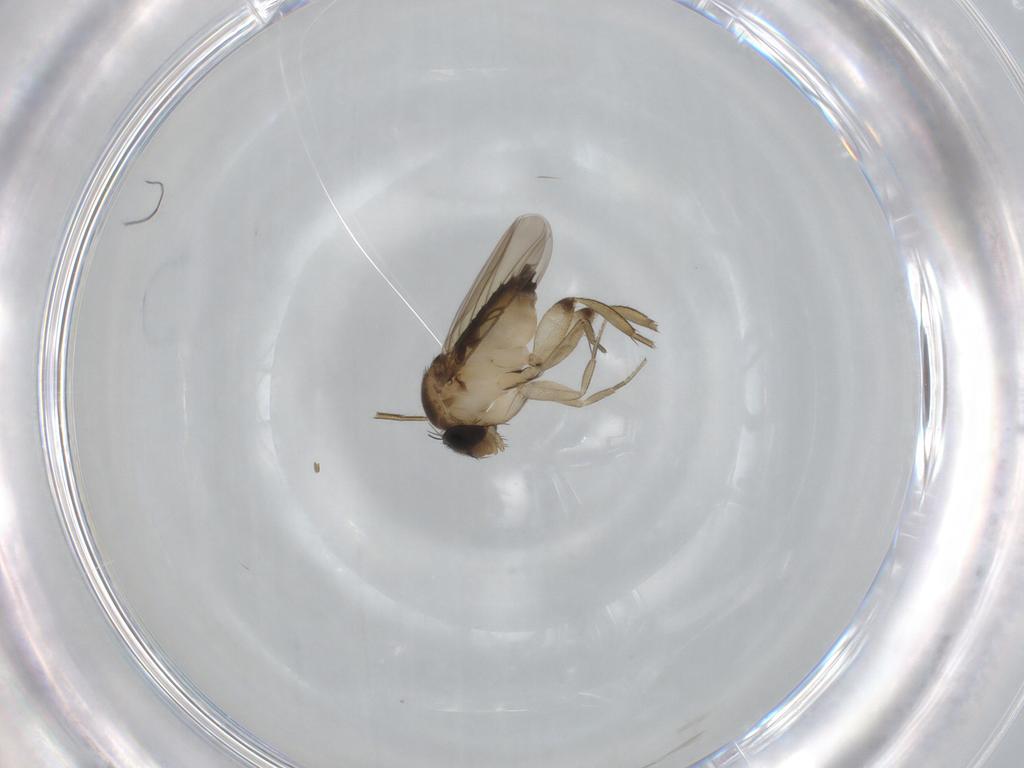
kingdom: Animalia
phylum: Arthropoda
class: Insecta
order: Diptera
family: Phoridae
